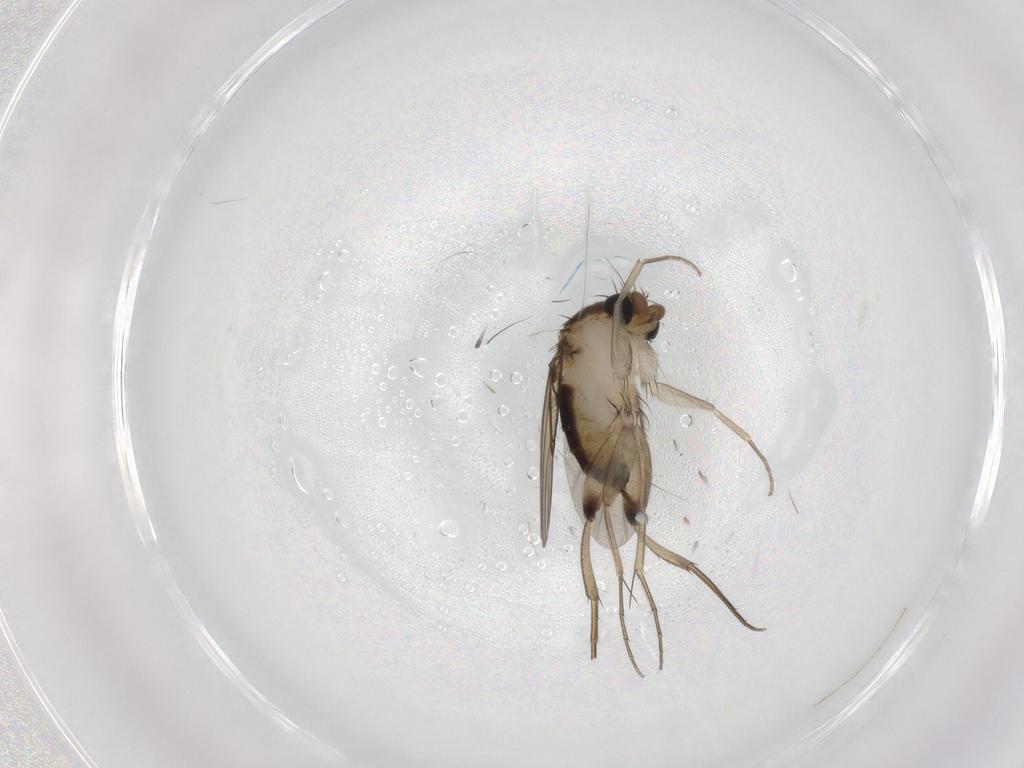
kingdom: Animalia
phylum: Arthropoda
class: Insecta
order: Diptera
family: Phoridae
